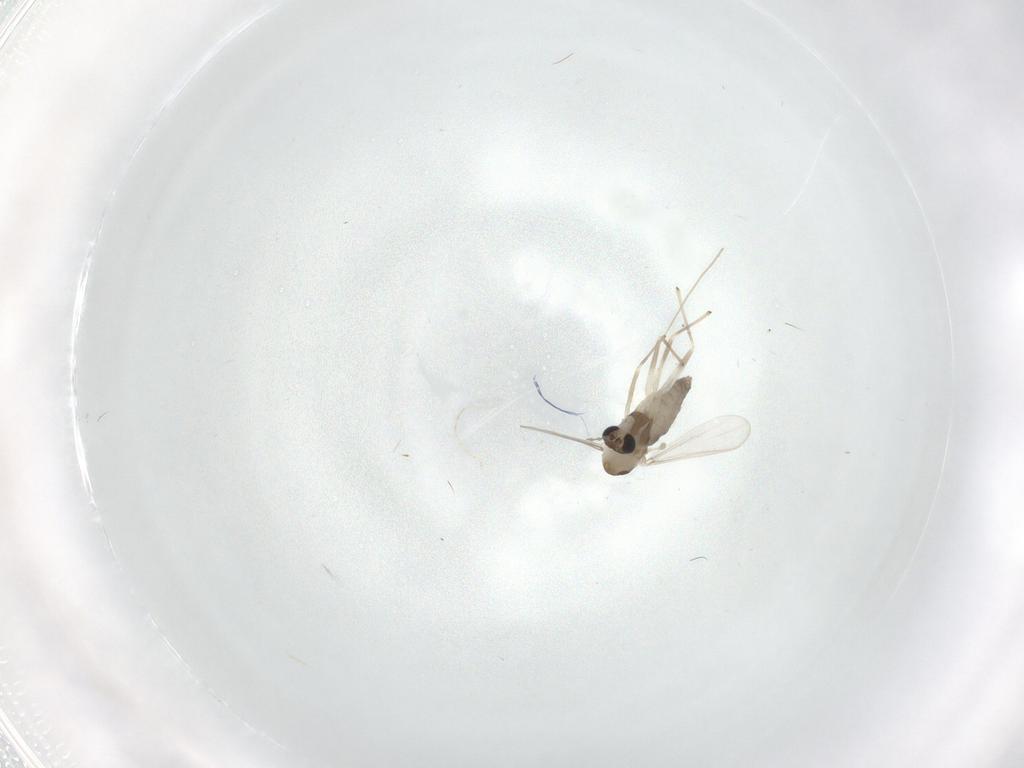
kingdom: Animalia
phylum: Arthropoda
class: Insecta
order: Diptera
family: Chironomidae
